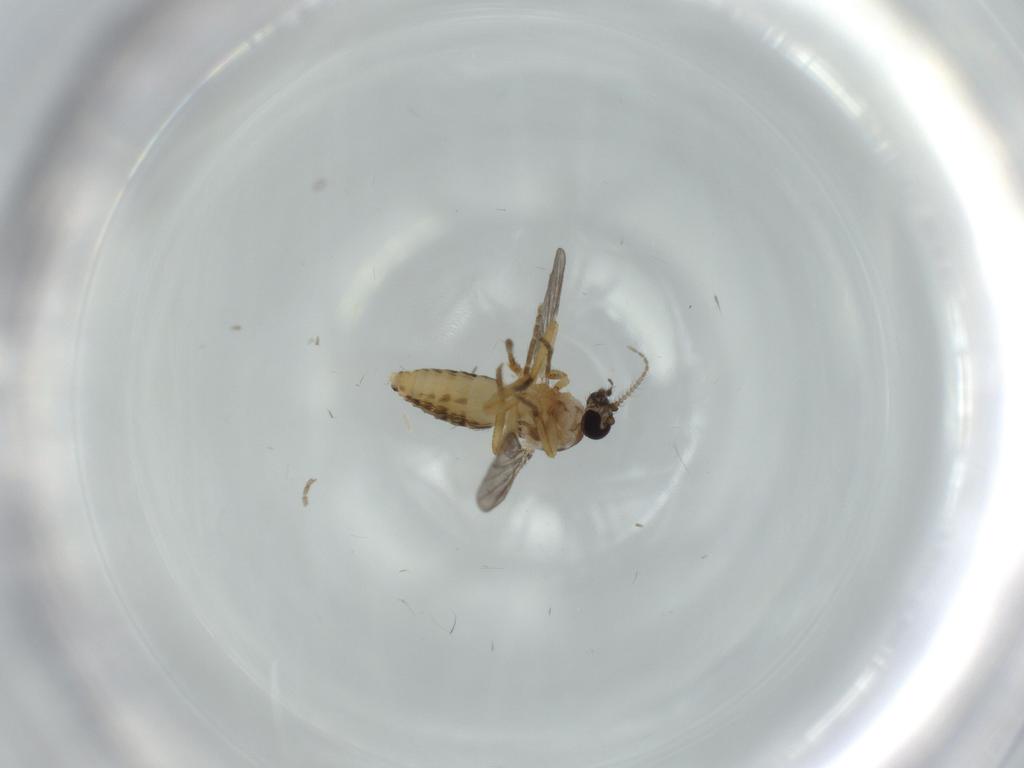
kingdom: Animalia
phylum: Arthropoda
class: Insecta
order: Diptera
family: Ceratopogonidae
